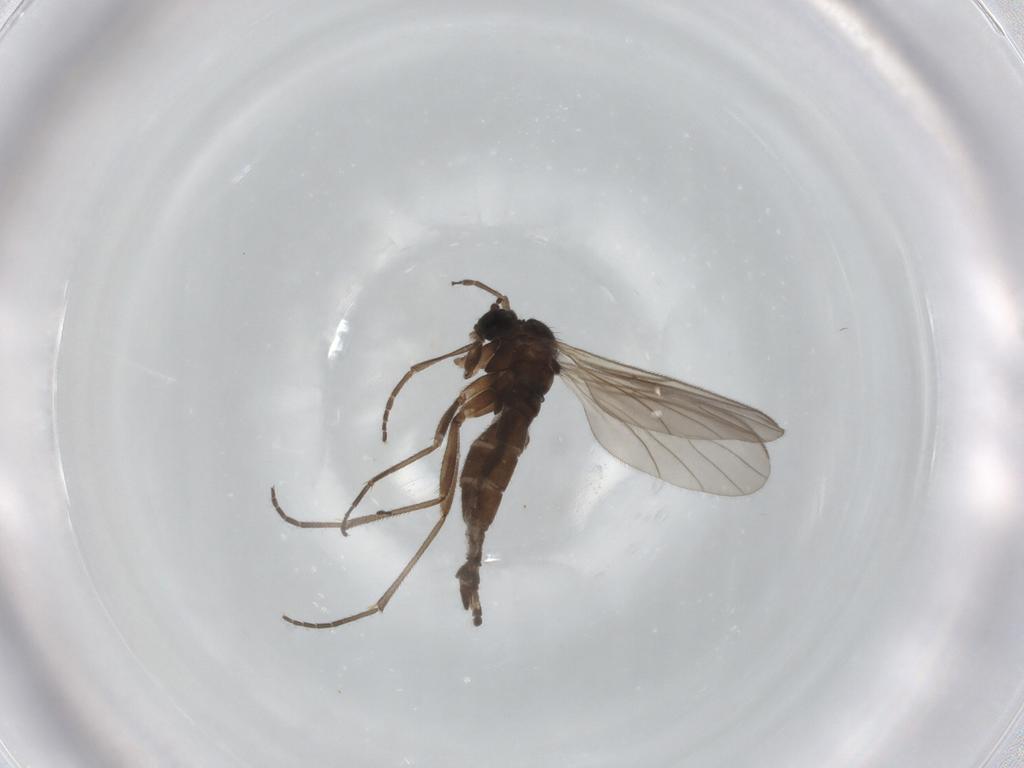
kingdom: Animalia
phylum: Arthropoda
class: Insecta
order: Diptera
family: Sciaridae
